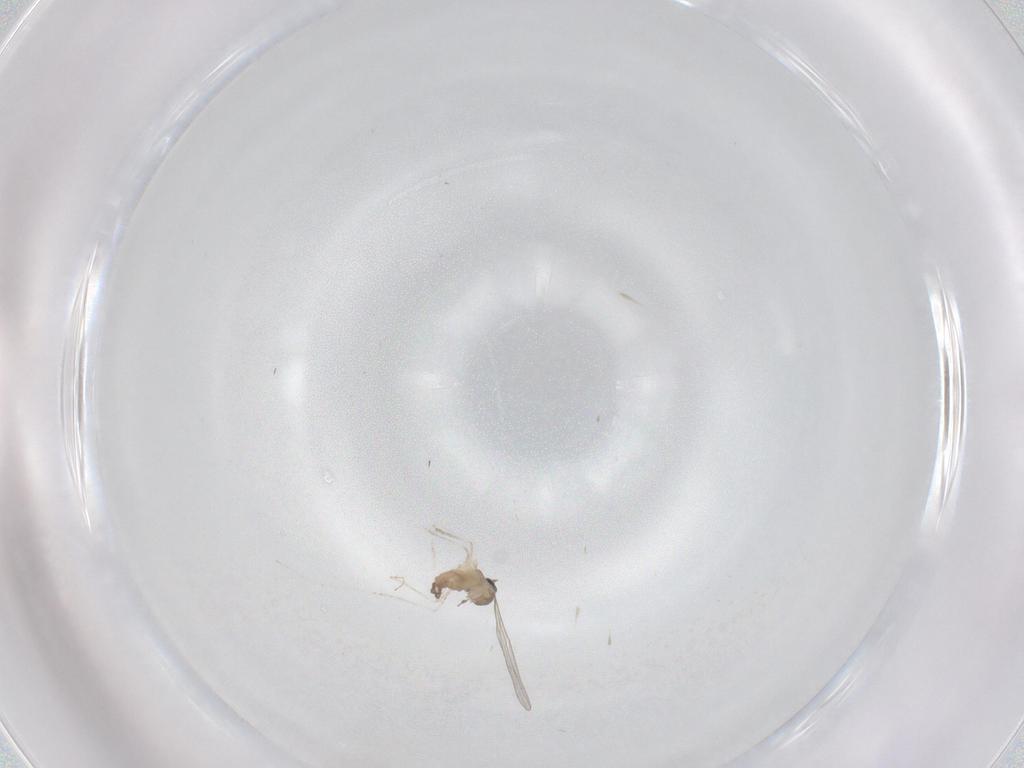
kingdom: Animalia
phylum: Arthropoda
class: Insecta
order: Diptera
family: Cecidomyiidae
